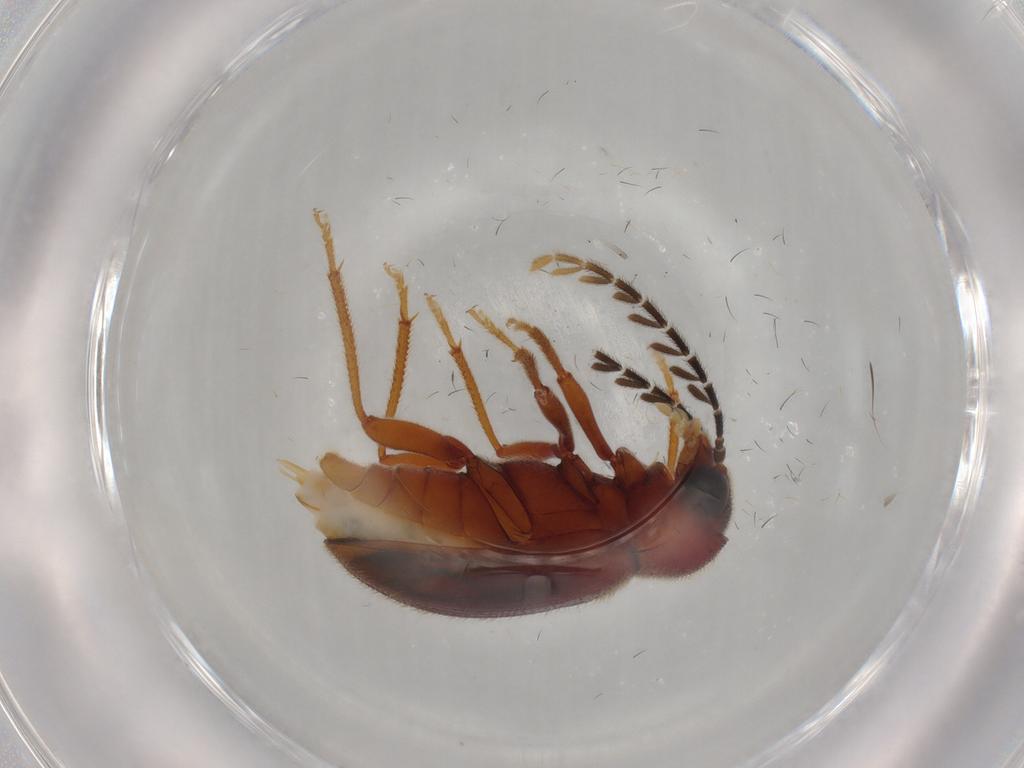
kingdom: Animalia
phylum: Arthropoda
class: Insecta
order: Coleoptera
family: Ptilodactylidae
